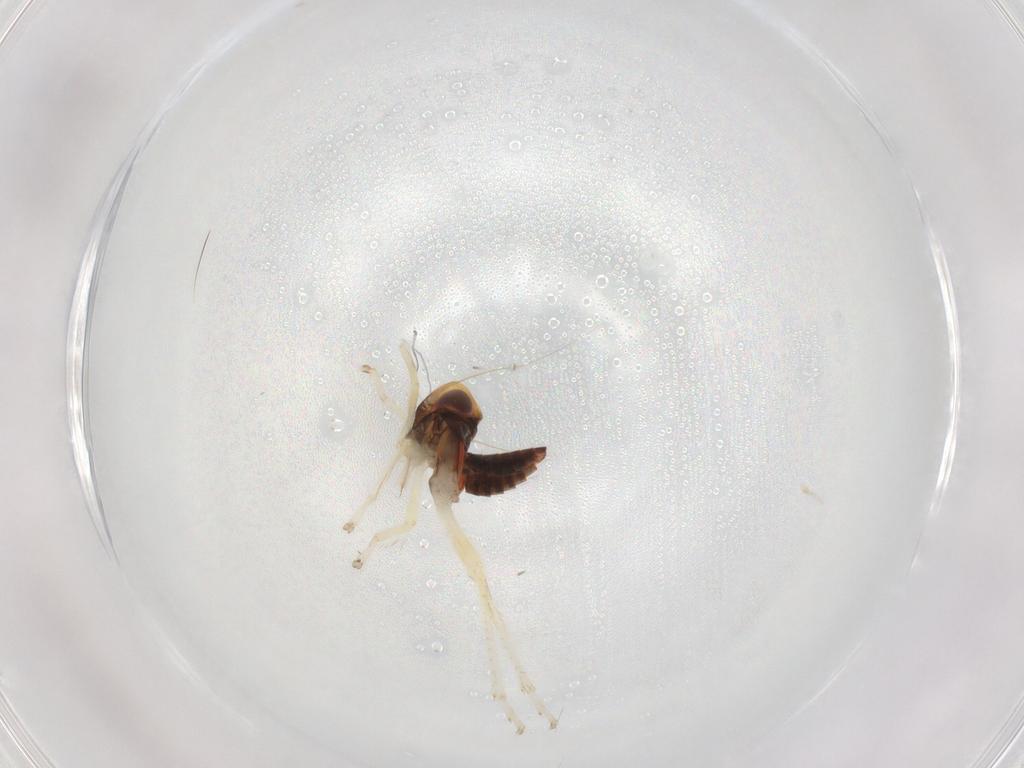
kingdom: Animalia
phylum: Arthropoda
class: Insecta
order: Hemiptera
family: Cicadellidae
